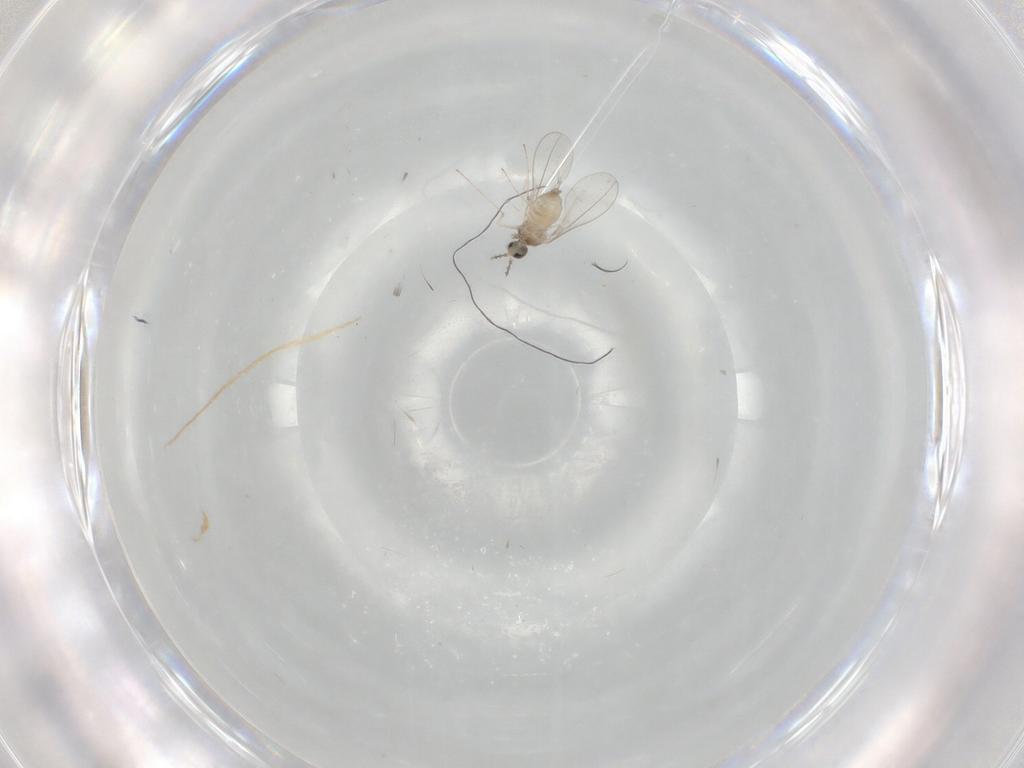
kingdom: Animalia
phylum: Arthropoda
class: Insecta
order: Diptera
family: Cecidomyiidae
